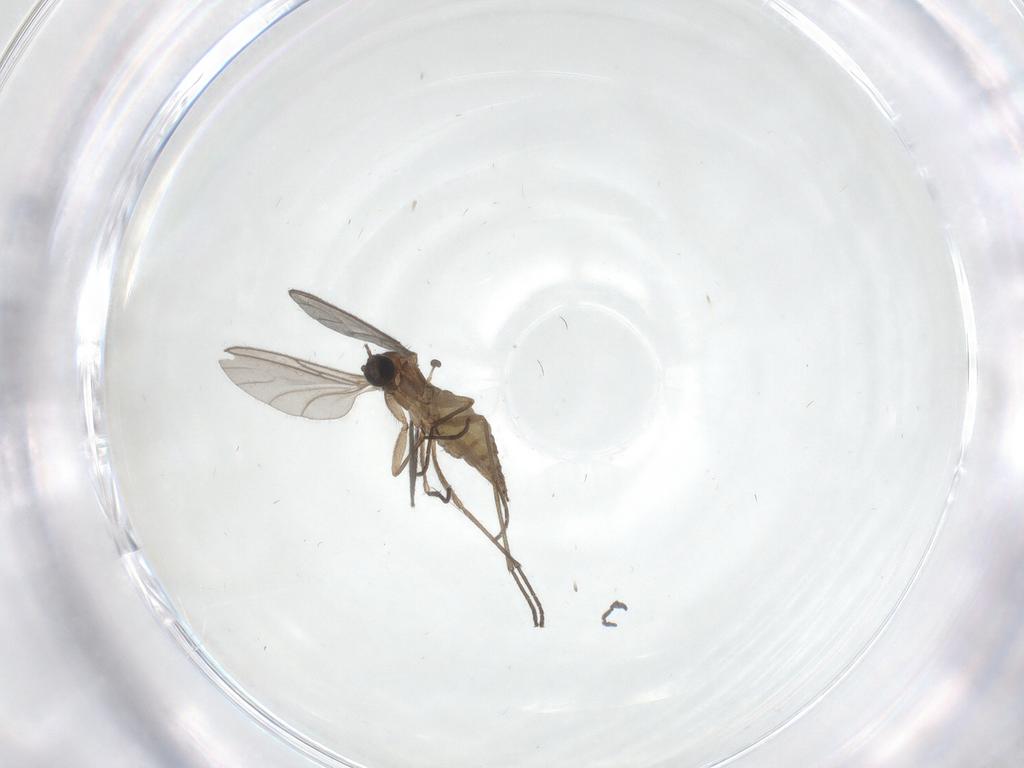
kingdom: Animalia
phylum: Arthropoda
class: Insecta
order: Diptera
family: Sciaridae
